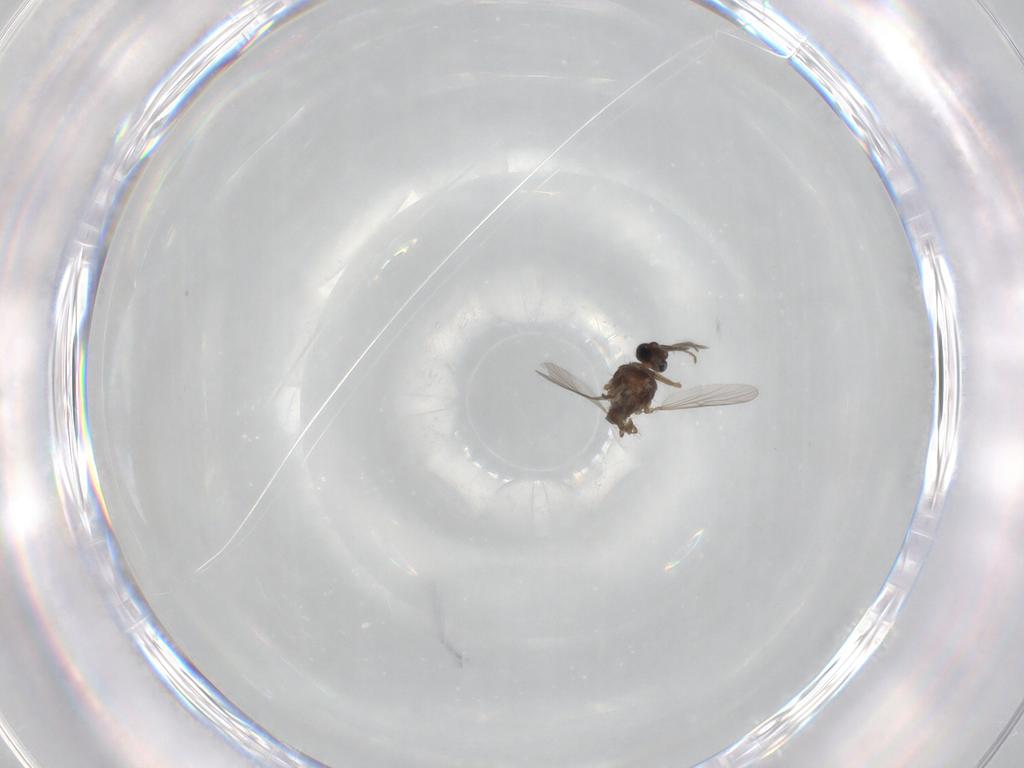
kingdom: Animalia
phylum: Arthropoda
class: Insecta
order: Diptera
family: Ceratopogonidae
